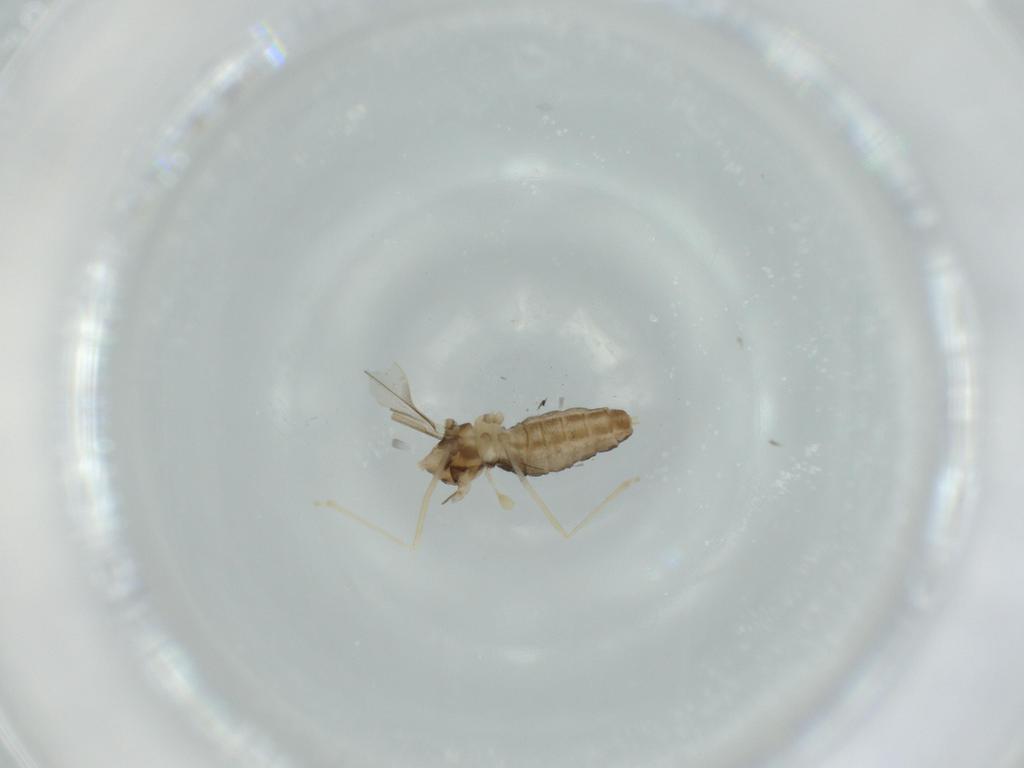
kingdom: Animalia
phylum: Arthropoda
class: Insecta
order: Diptera
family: Cecidomyiidae
